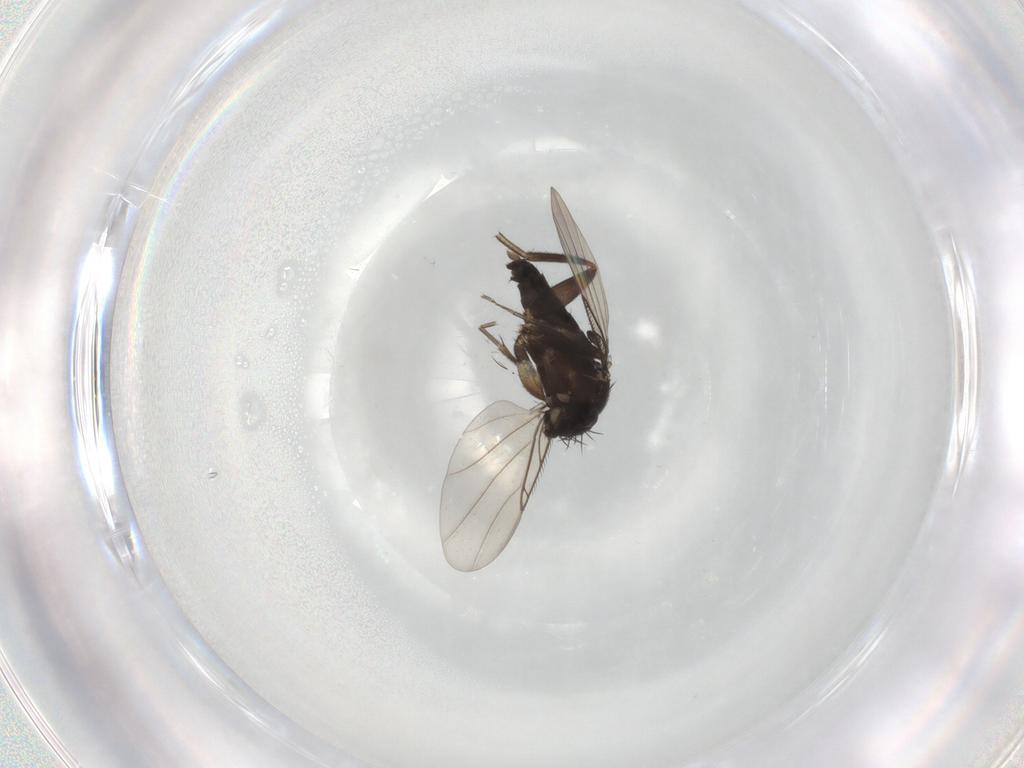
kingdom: Animalia
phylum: Arthropoda
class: Insecta
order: Diptera
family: Phoridae
